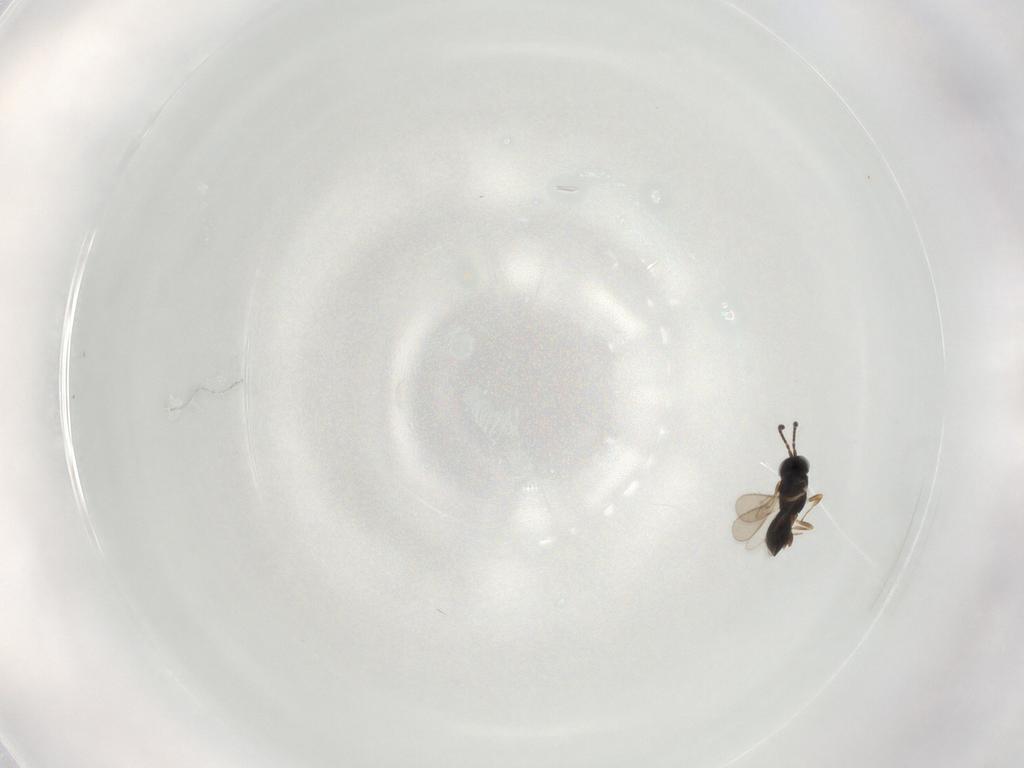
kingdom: Animalia
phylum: Arthropoda
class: Insecta
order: Hymenoptera
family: Scelionidae
